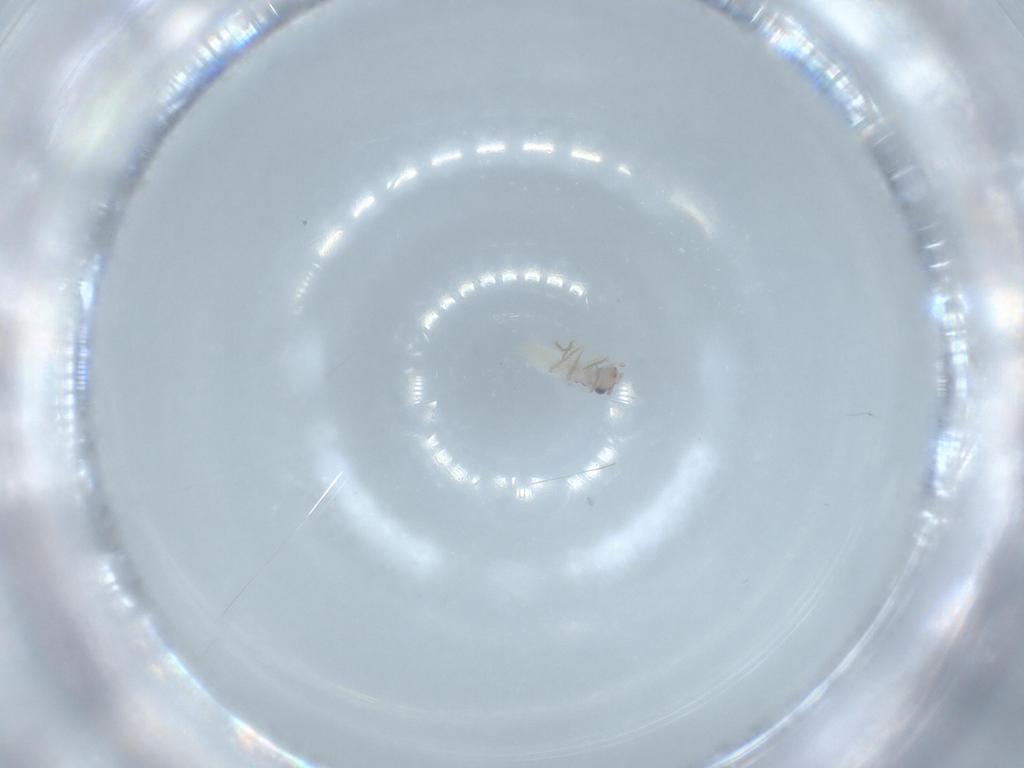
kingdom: Animalia
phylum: Arthropoda
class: Insecta
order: Psocodea
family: Lepidopsocidae
